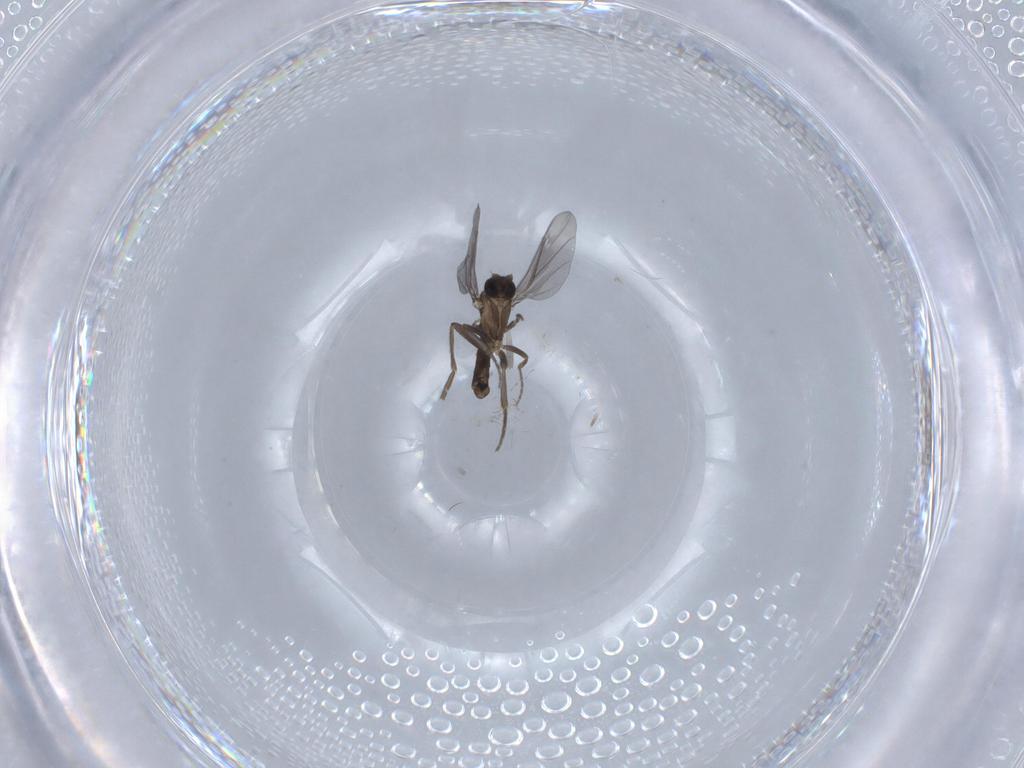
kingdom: Animalia
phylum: Arthropoda
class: Insecta
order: Diptera
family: Phoridae
